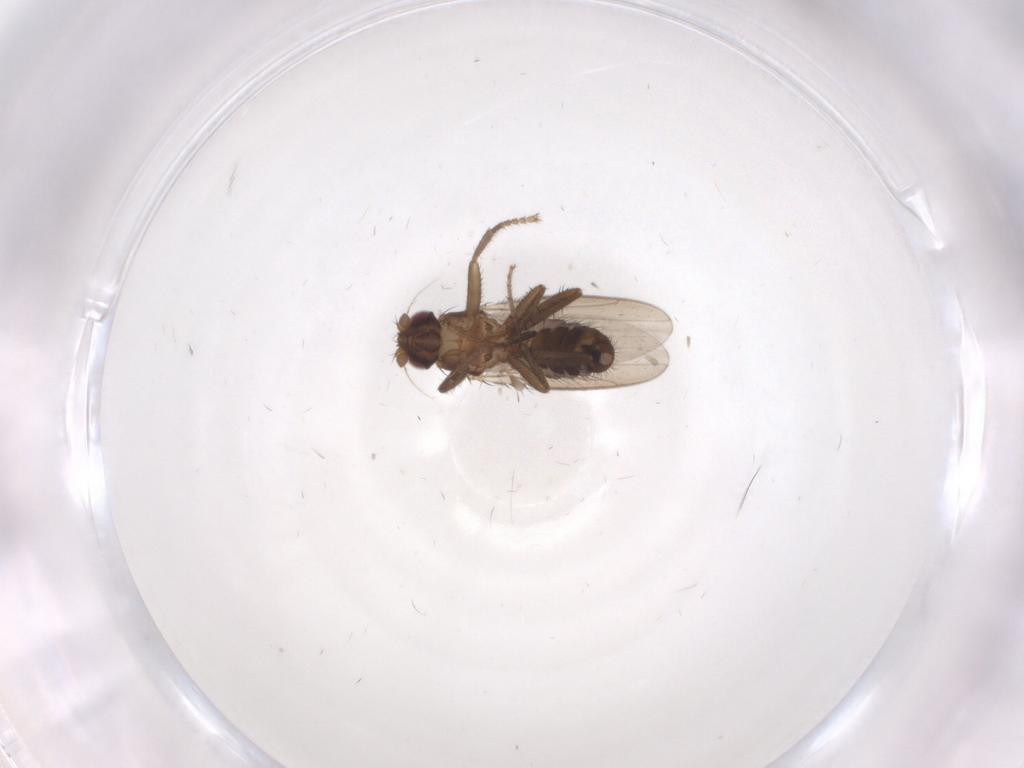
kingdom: Animalia
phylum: Arthropoda
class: Insecta
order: Diptera
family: Sphaeroceridae
